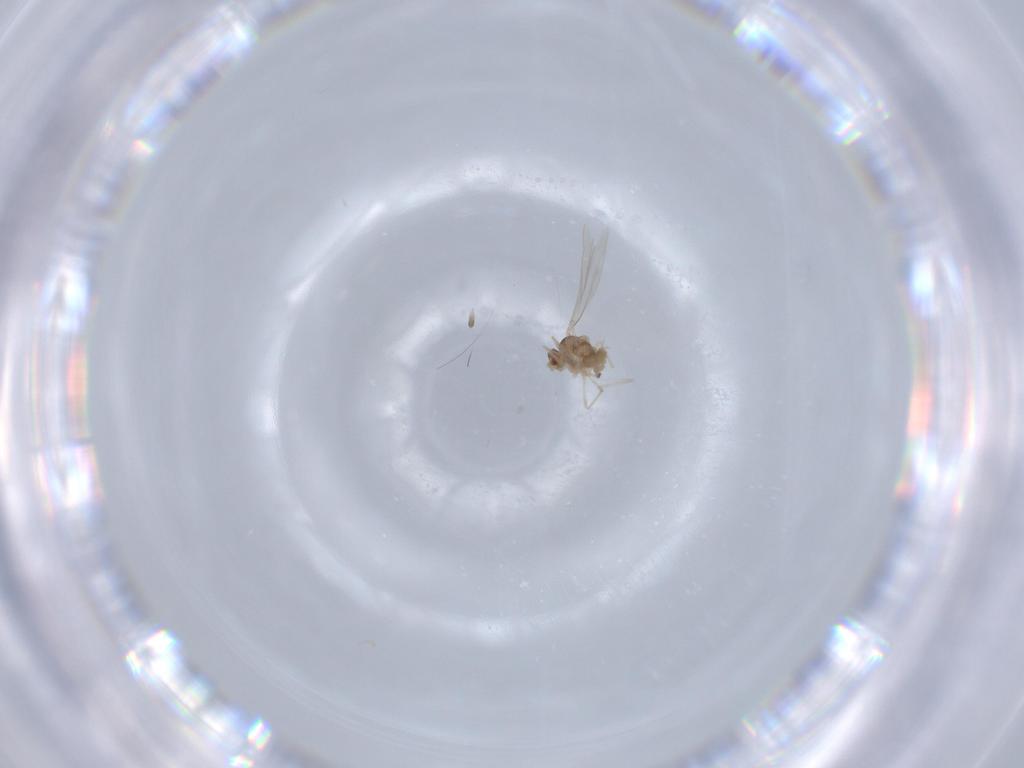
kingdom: Animalia
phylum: Arthropoda
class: Insecta
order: Diptera
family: Cecidomyiidae
